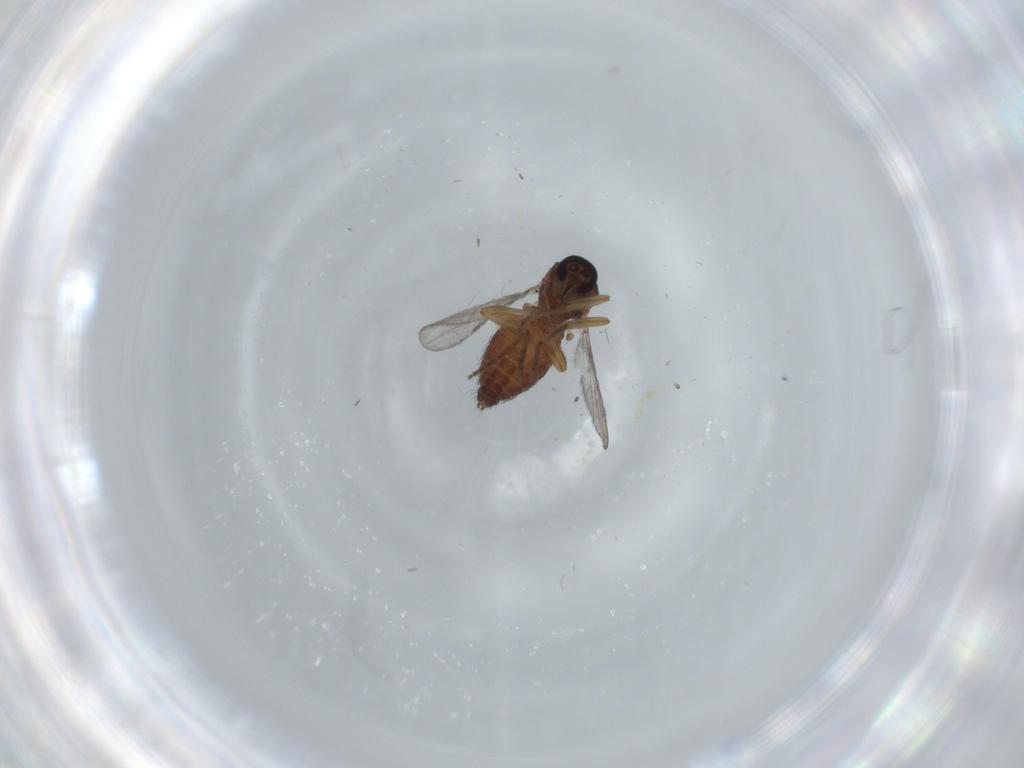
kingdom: Animalia
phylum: Arthropoda
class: Insecta
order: Diptera
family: Ceratopogonidae
